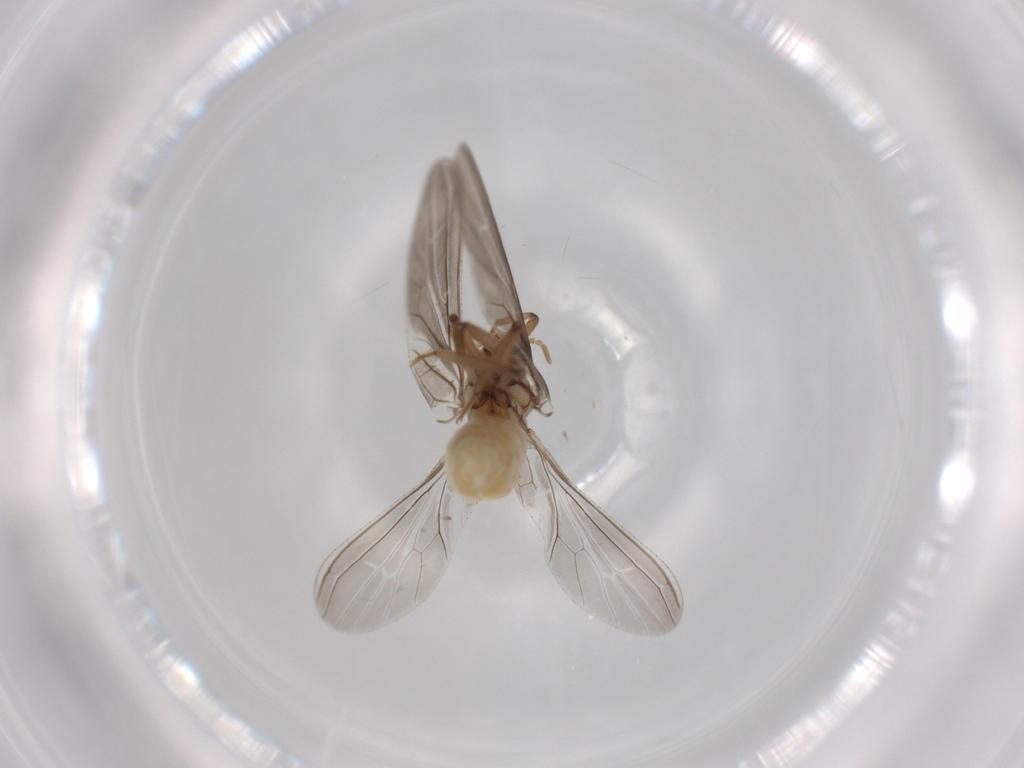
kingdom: Animalia
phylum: Arthropoda
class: Insecta
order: Neuroptera
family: Coniopterygidae
